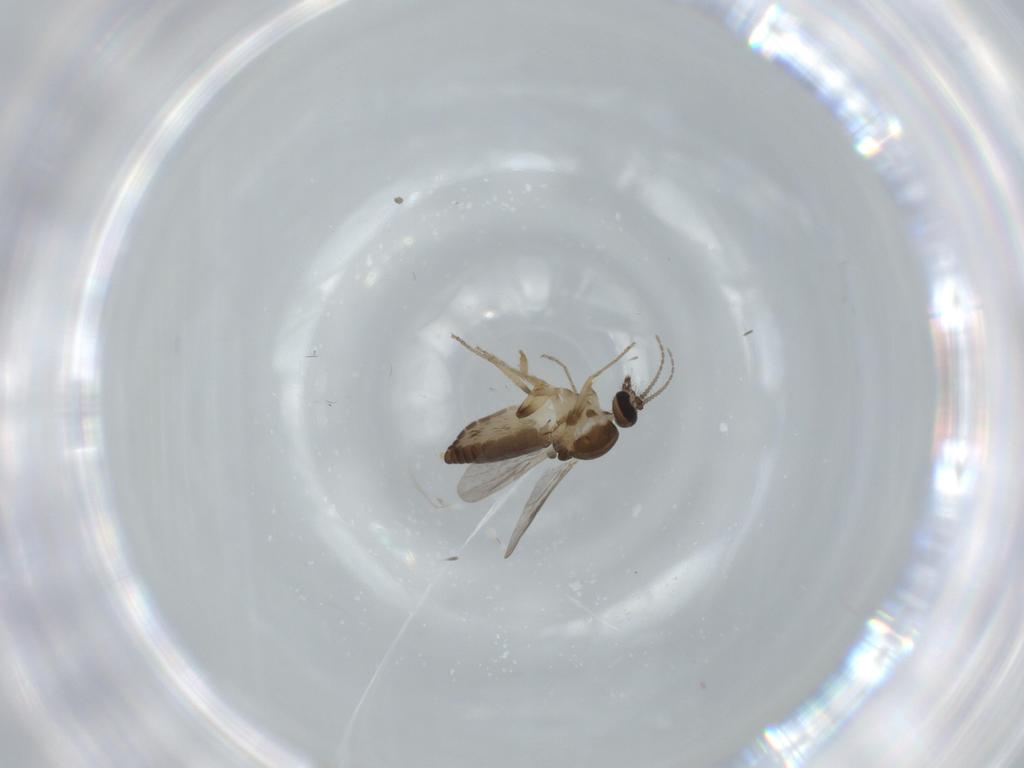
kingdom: Animalia
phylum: Arthropoda
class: Insecta
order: Diptera
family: Ceratopogonidae
